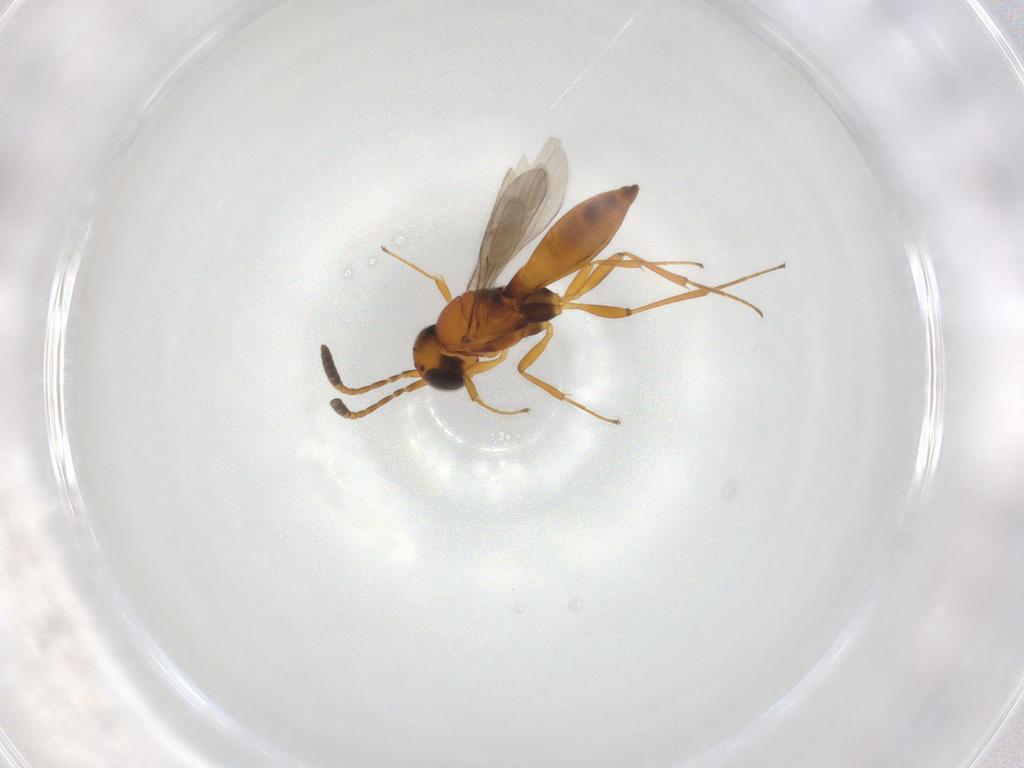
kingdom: Animalia
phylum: Arthropoda
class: Insecta
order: Hymenoptera
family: Scelionidae
